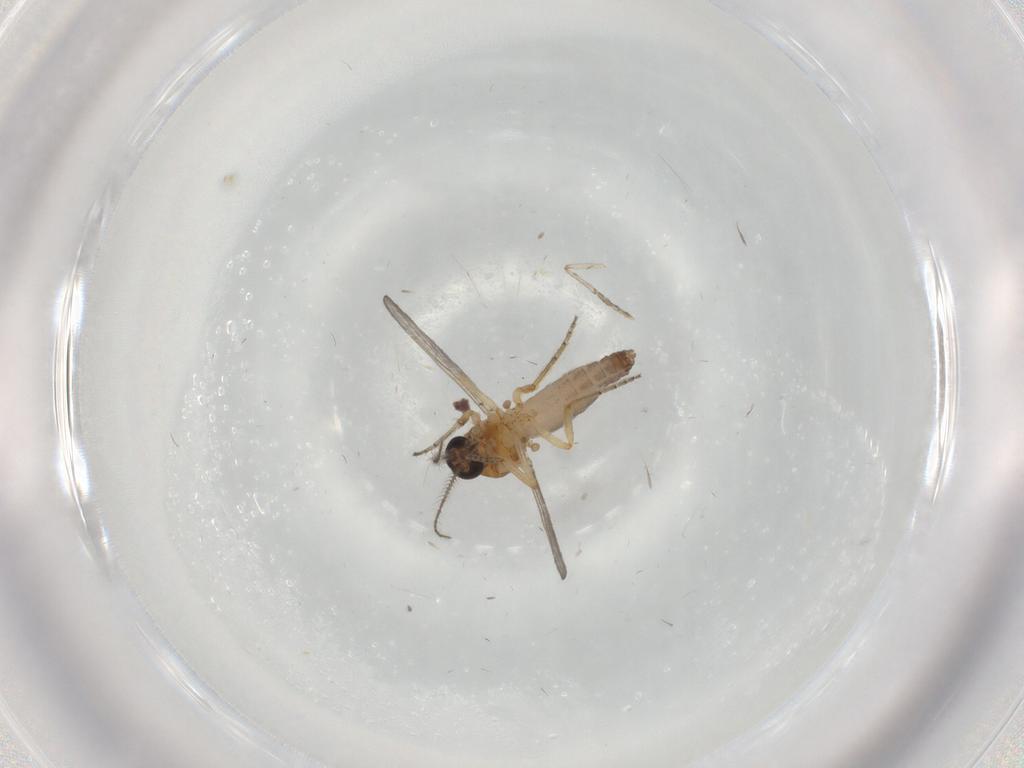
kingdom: Animalia
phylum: Arthropoda
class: Insecta
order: Diptera
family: Dolichopodidae
